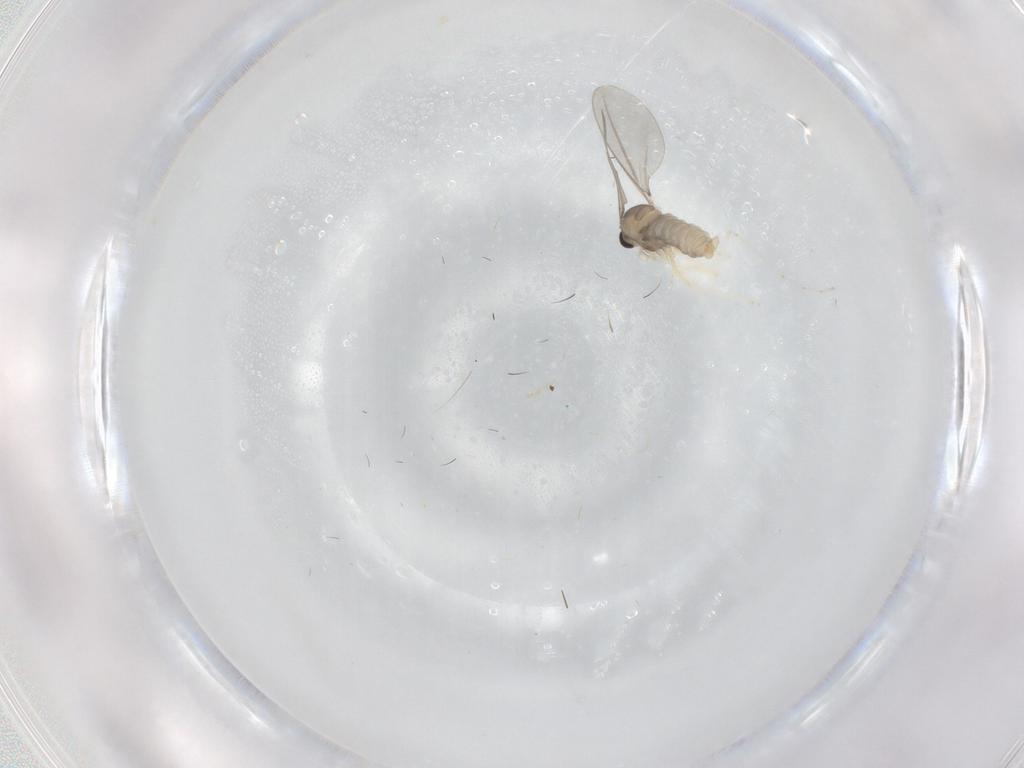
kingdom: Animalia
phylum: Arthropoda
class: Insecta
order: Diptera
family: Cecidomyiidae
